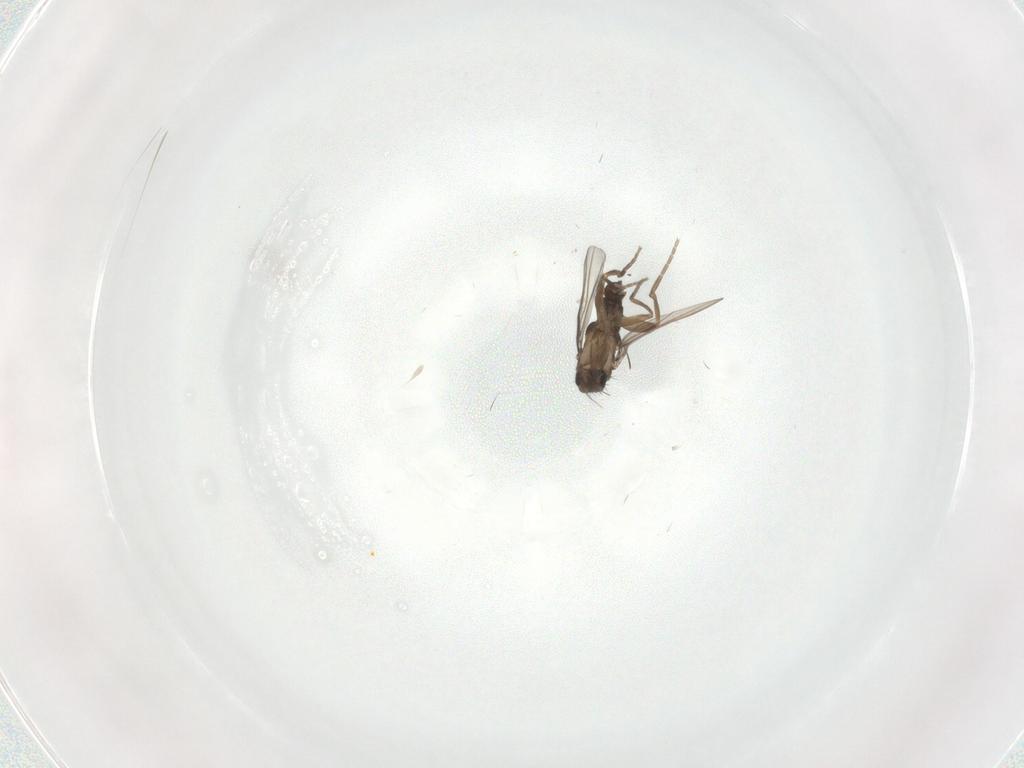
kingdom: Animalia
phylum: Arthropoda
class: Insecta
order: Diptera
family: Sciaridae
